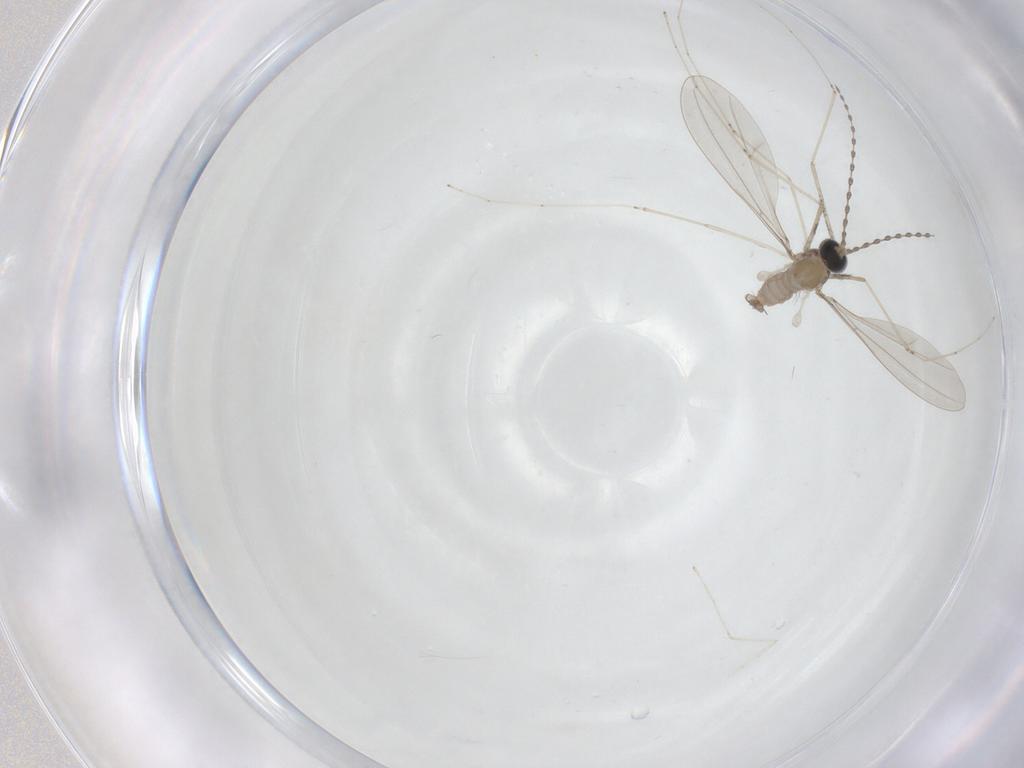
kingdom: Animalia
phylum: Arthropoda
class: Insecta
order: Diptera
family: Cecidomyiidae
